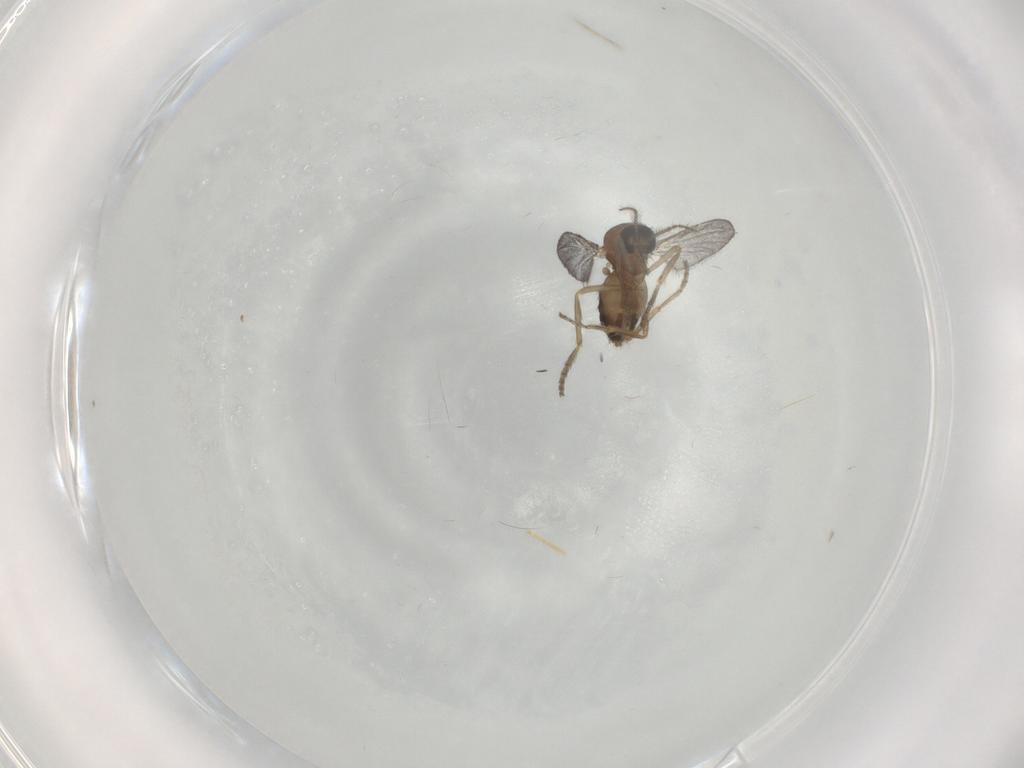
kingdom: Animalia
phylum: Arthropoda
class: Insecta
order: Diptera
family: Ceratopogonidae
